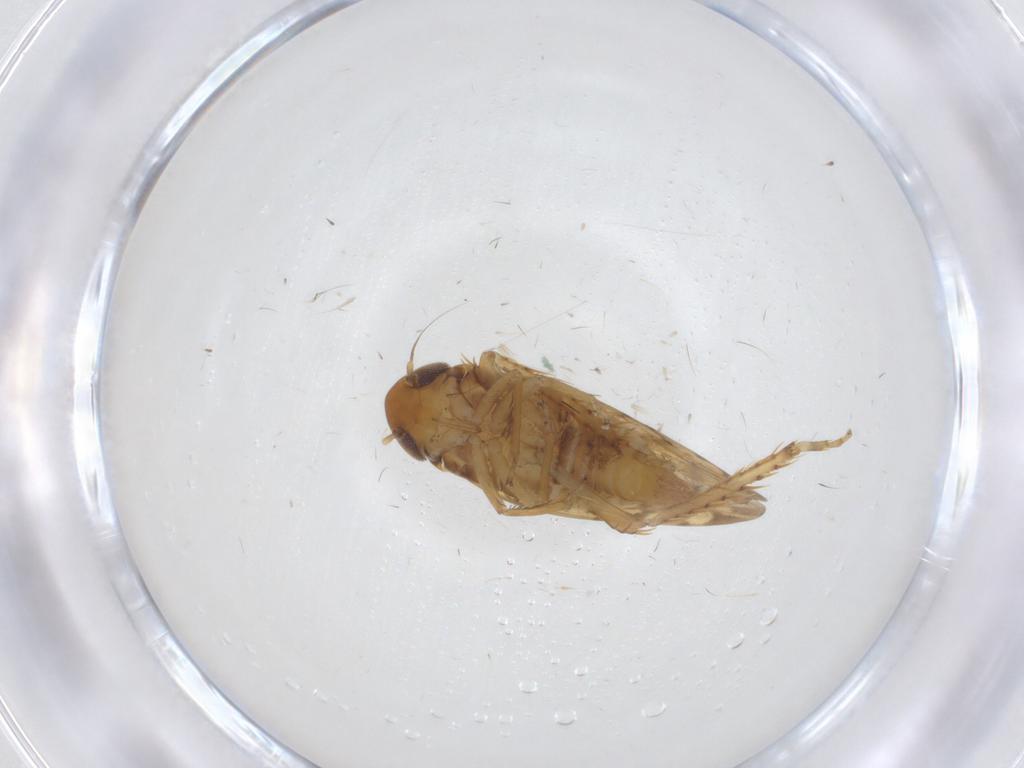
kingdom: Animalia
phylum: Arthropoda
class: Insecta
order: Hemiptera
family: Cicadellidae
